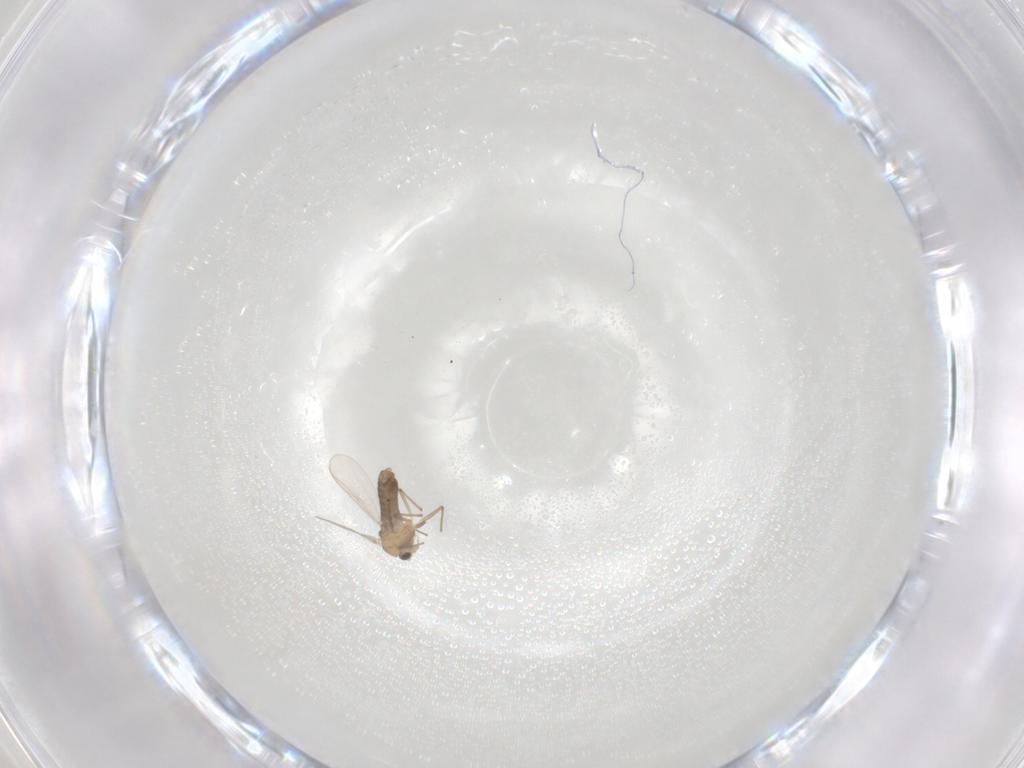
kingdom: Animalia
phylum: Arthropoda
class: Insecta
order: Diptera
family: Chironomidae
